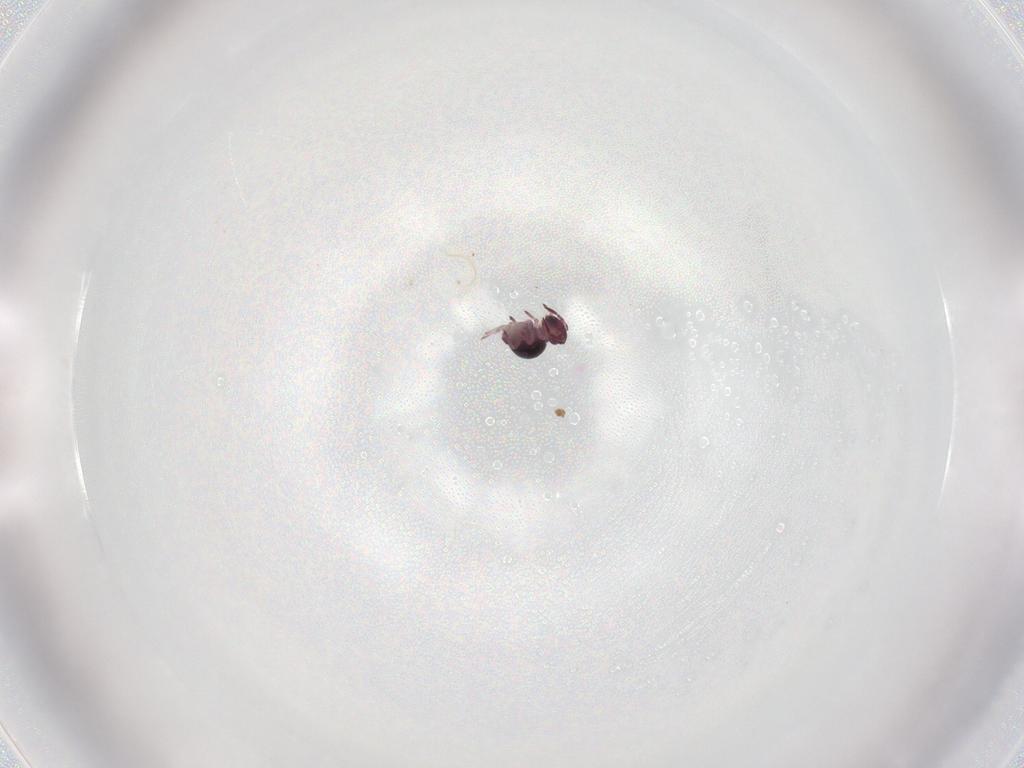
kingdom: Animalia
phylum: Arthropoda
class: Collembola
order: Symphypleona
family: Sminthurididae
